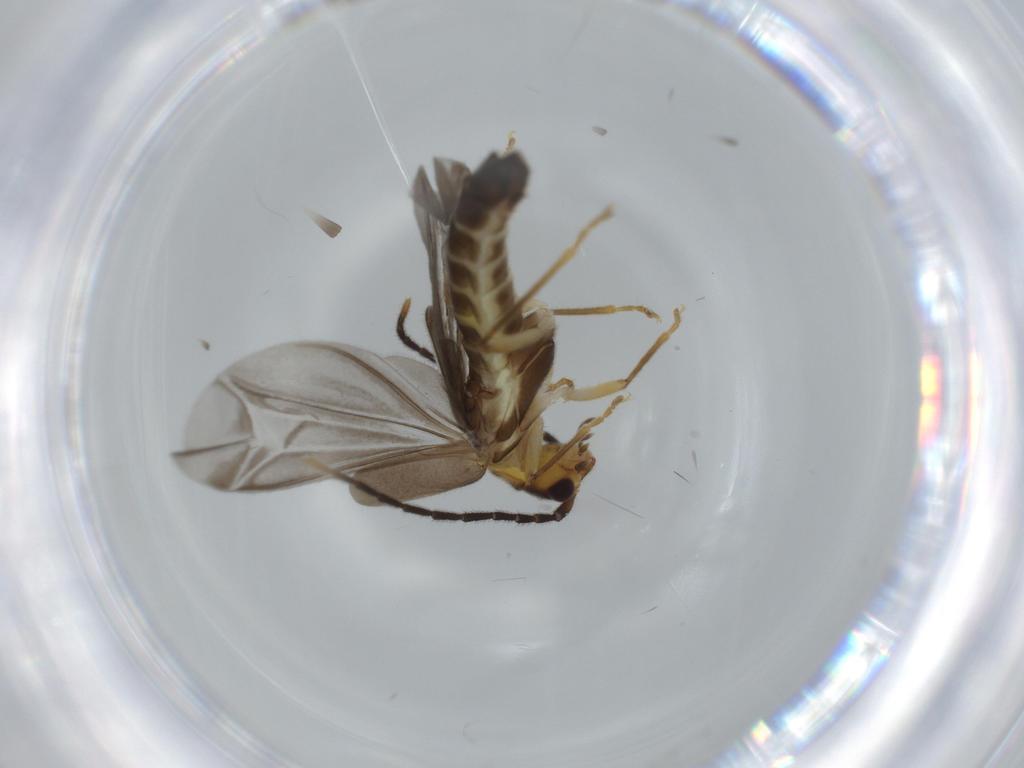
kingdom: Animalia
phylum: Arthropoda
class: Insecta
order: Coleoptera
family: Cantharidae
